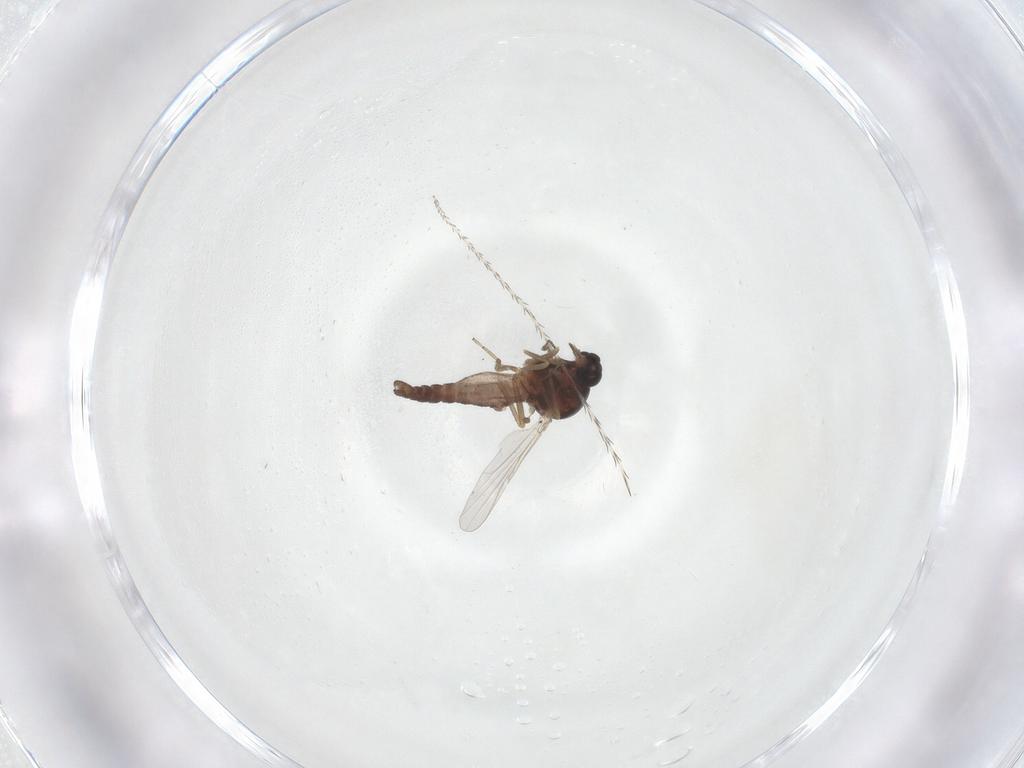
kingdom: Animalia
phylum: Arthropoda
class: Insecta
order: Diptera
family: Ceratopogonidae
